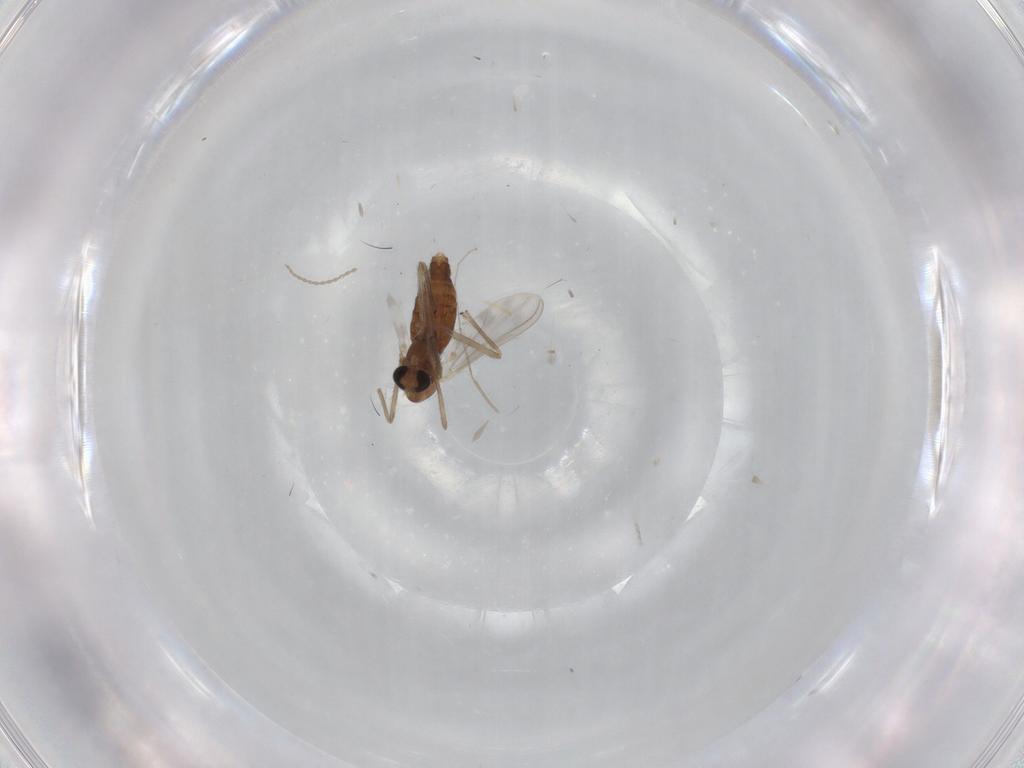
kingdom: Animalia
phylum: Arthropoda
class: Insecta
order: Diptera
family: Chironomidae
